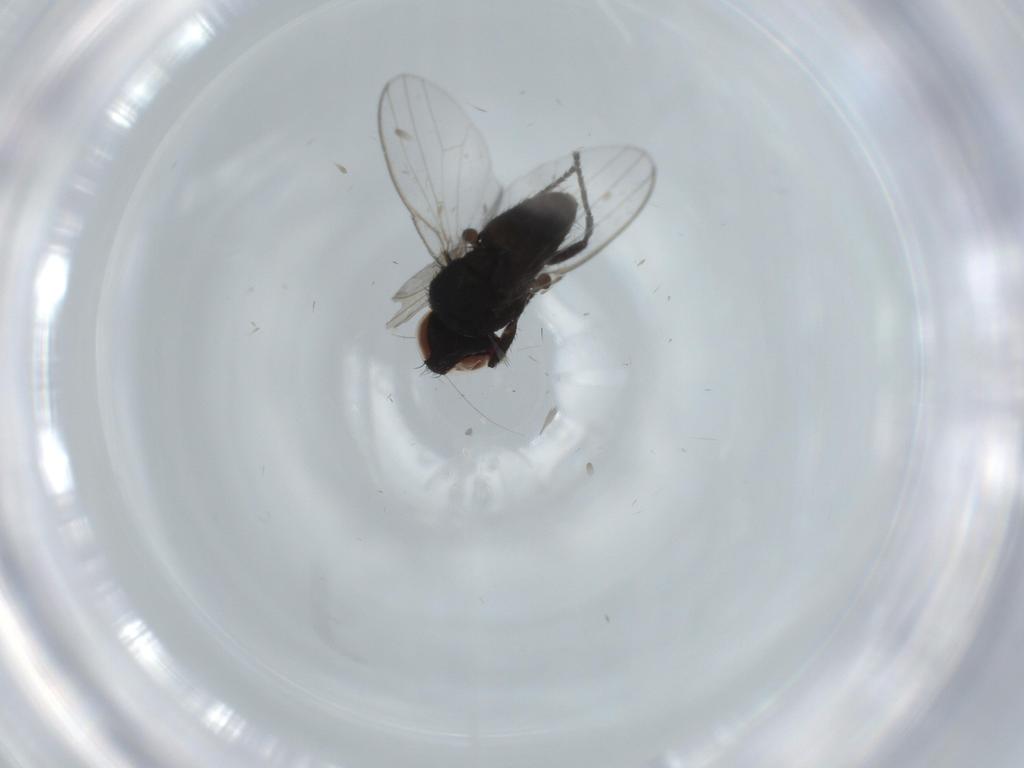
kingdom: Animalia
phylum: Arthropoda
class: Insecta
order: Diptera
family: Sciaridae
